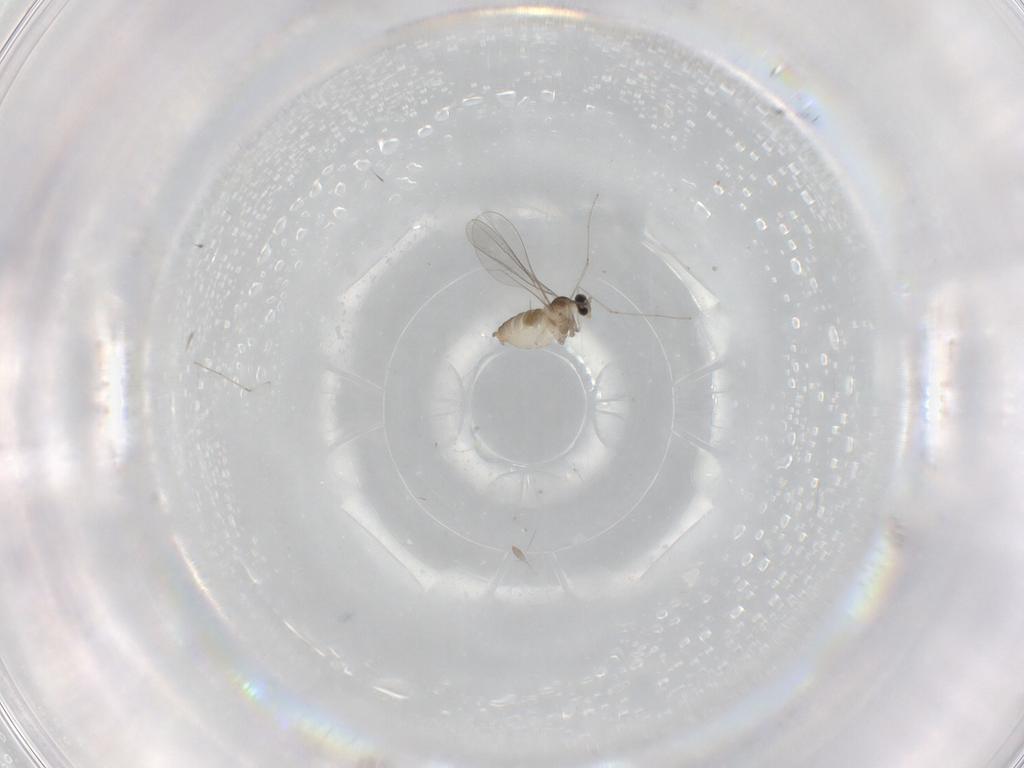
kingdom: Animalia
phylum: Arthropoda
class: Insecta
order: Diptera
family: Cecidomyiidae
